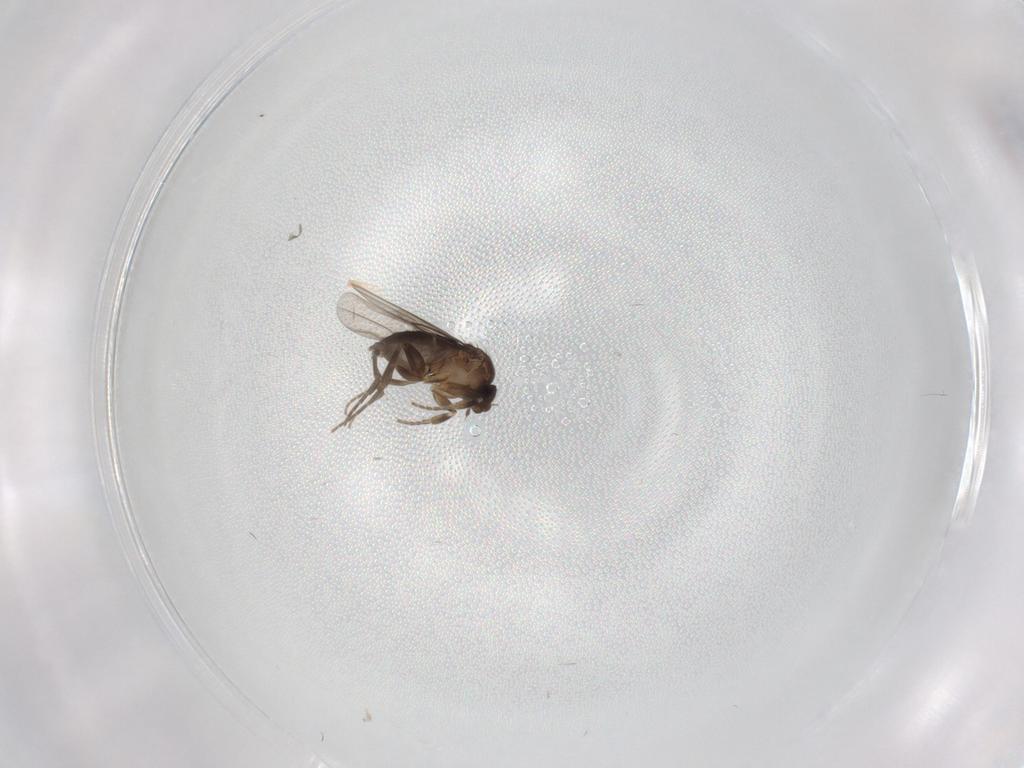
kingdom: Animalia
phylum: Arthropoda
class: Insecta
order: Diptera
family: Cecidomyiidae
